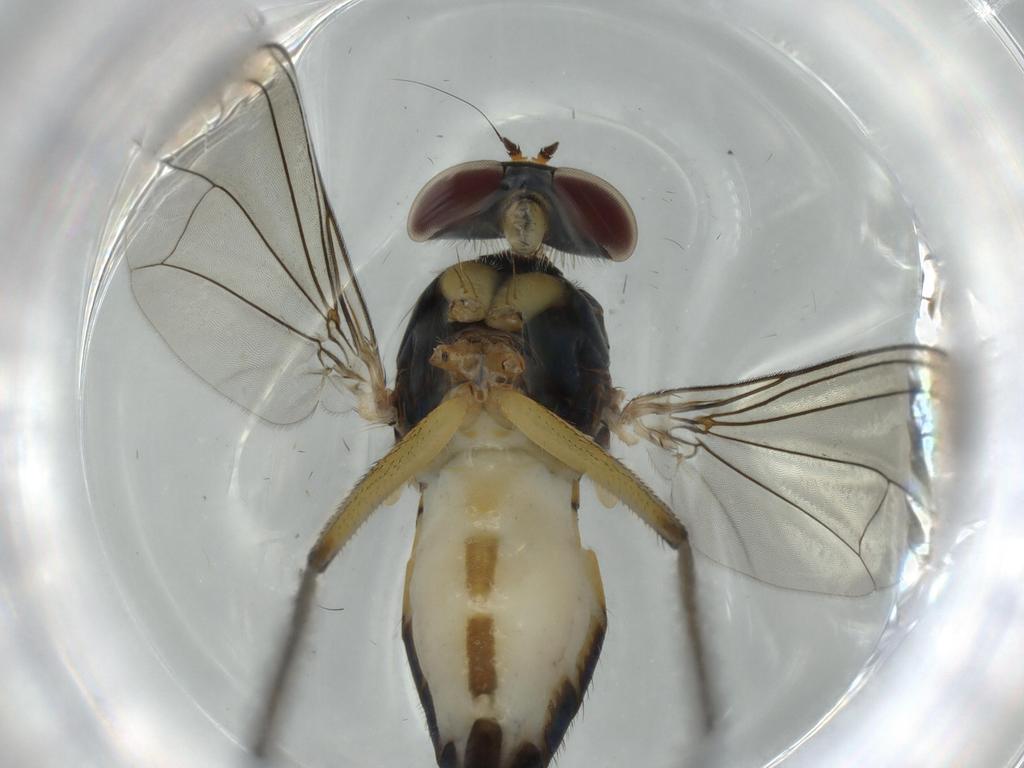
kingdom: Animalia
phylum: Arthropoda
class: Insecta
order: Diptera
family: Dolichopodidae
